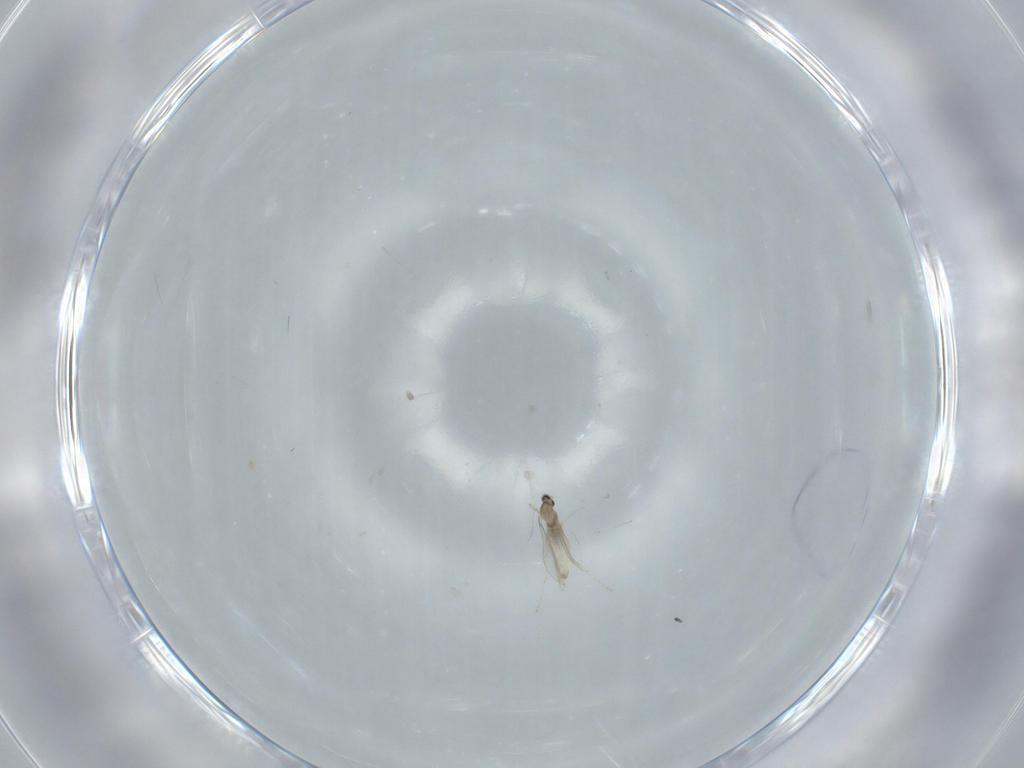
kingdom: Animalia
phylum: Arthropoda
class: Insecta
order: Diptera
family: Cecidomyiidae
